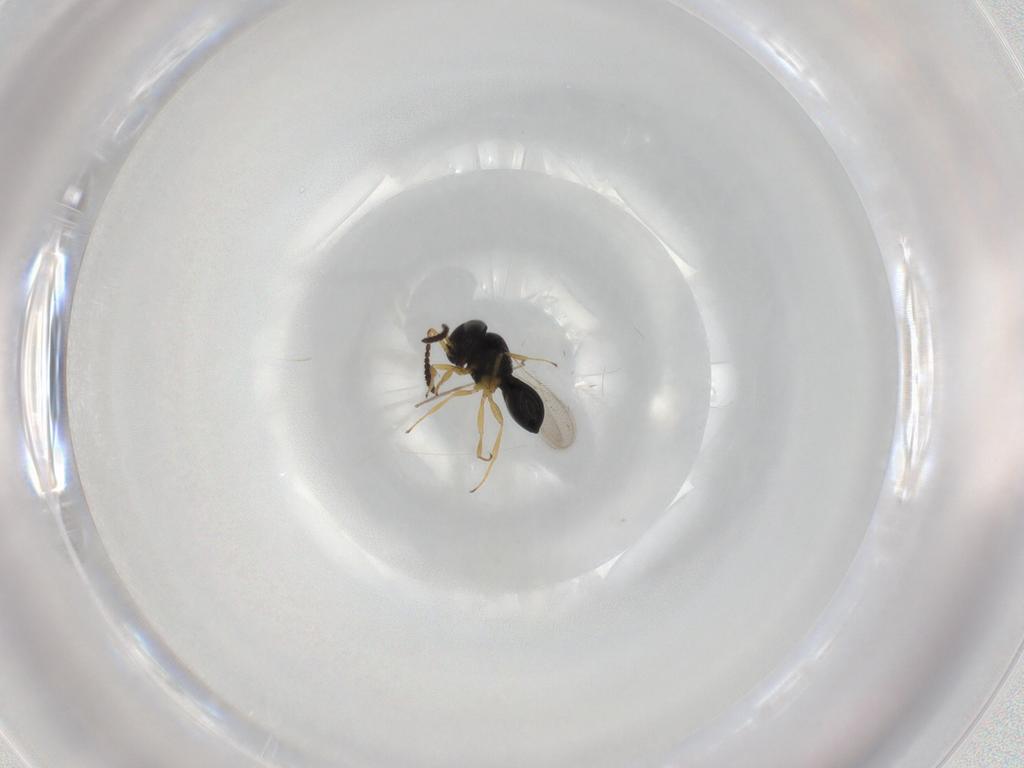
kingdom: Animalia
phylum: Arthropoda
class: Insecta
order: Hymenoptera
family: Scelionidae
